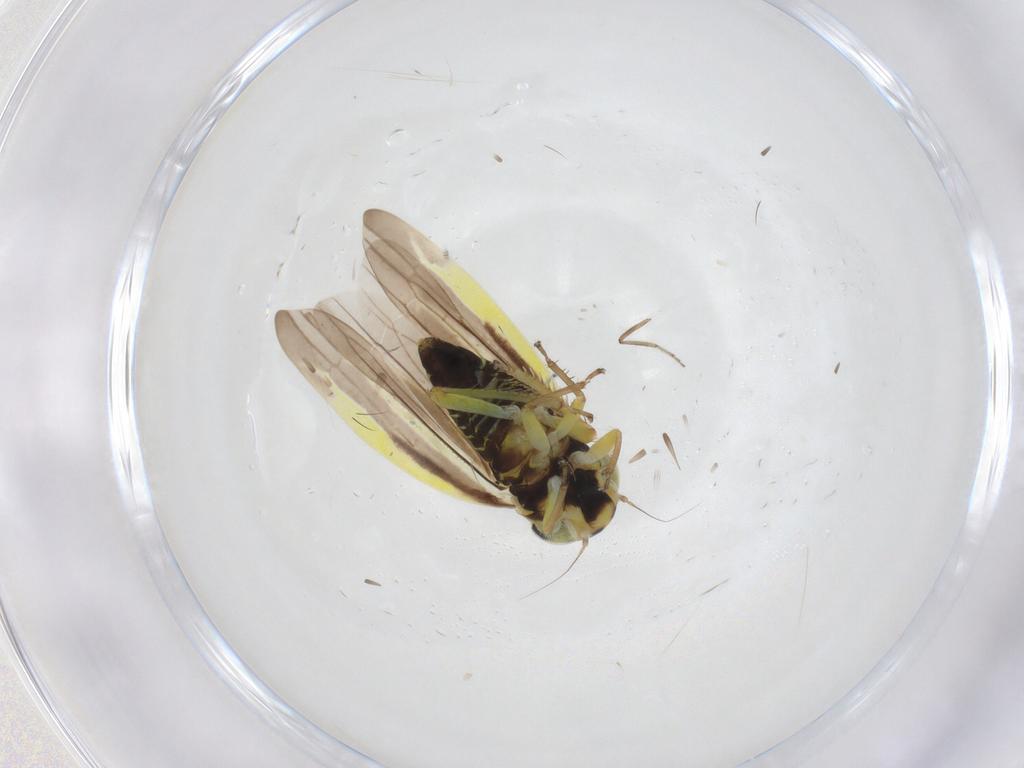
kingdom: Animalia
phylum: Arthropoda
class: Insecta
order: Hemiptera
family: Cicadellidae
